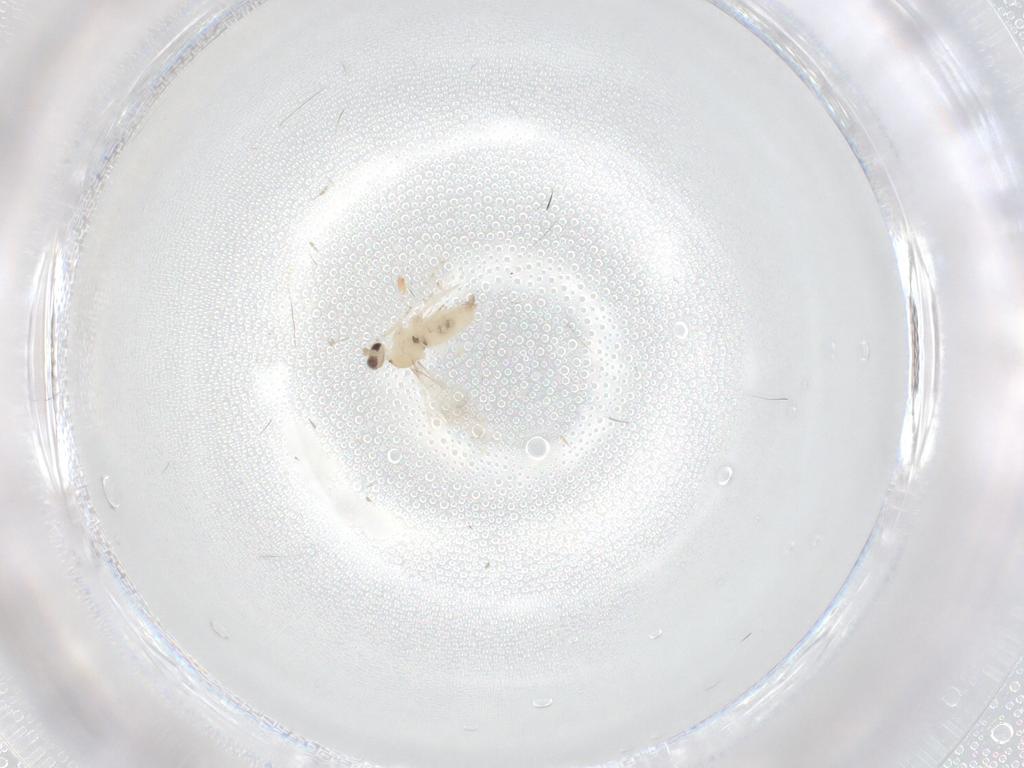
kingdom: Animalia
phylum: Arthropoda
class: Insecta
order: Diptera
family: Cecidomyiidae
